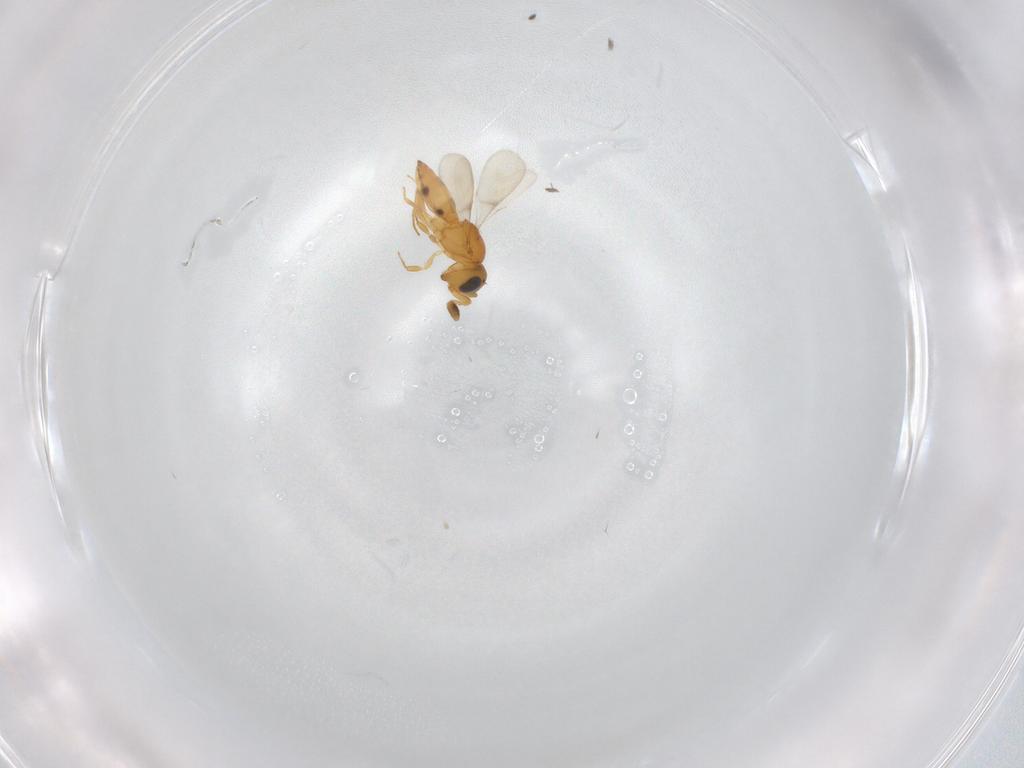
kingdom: Animalia
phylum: Arthropoda
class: Insecta
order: Hymenoptera
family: Scelionidae
